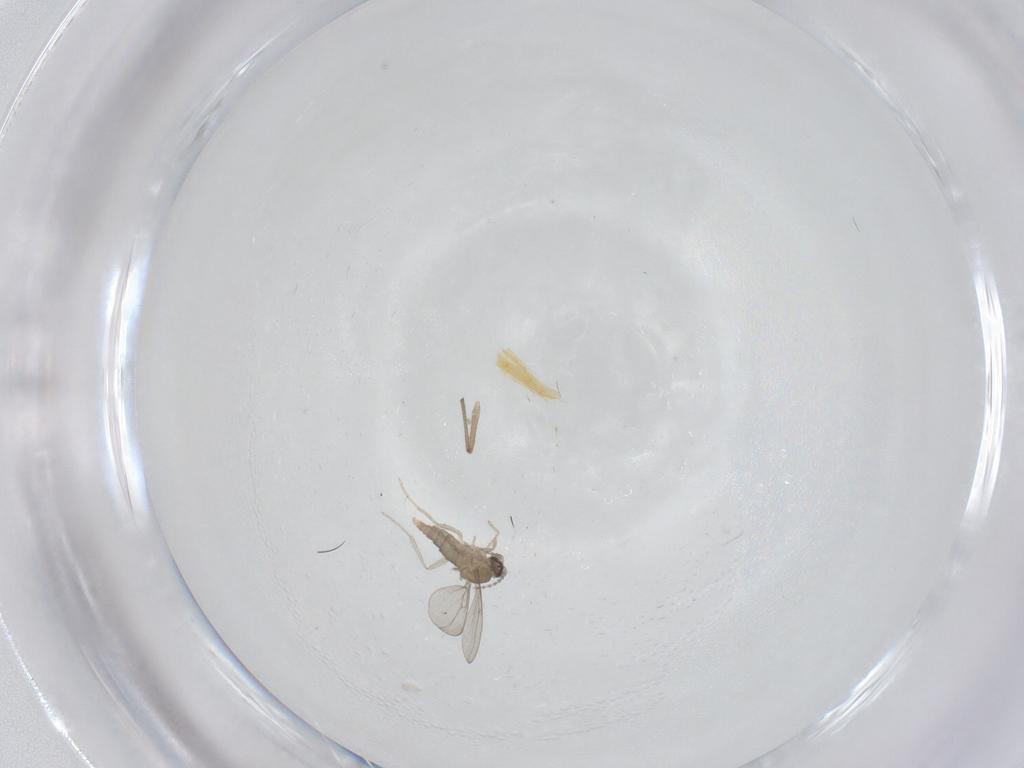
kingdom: Animalia
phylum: Arthropoda
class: Insecta
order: Diptera
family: Cecidomyiidae
